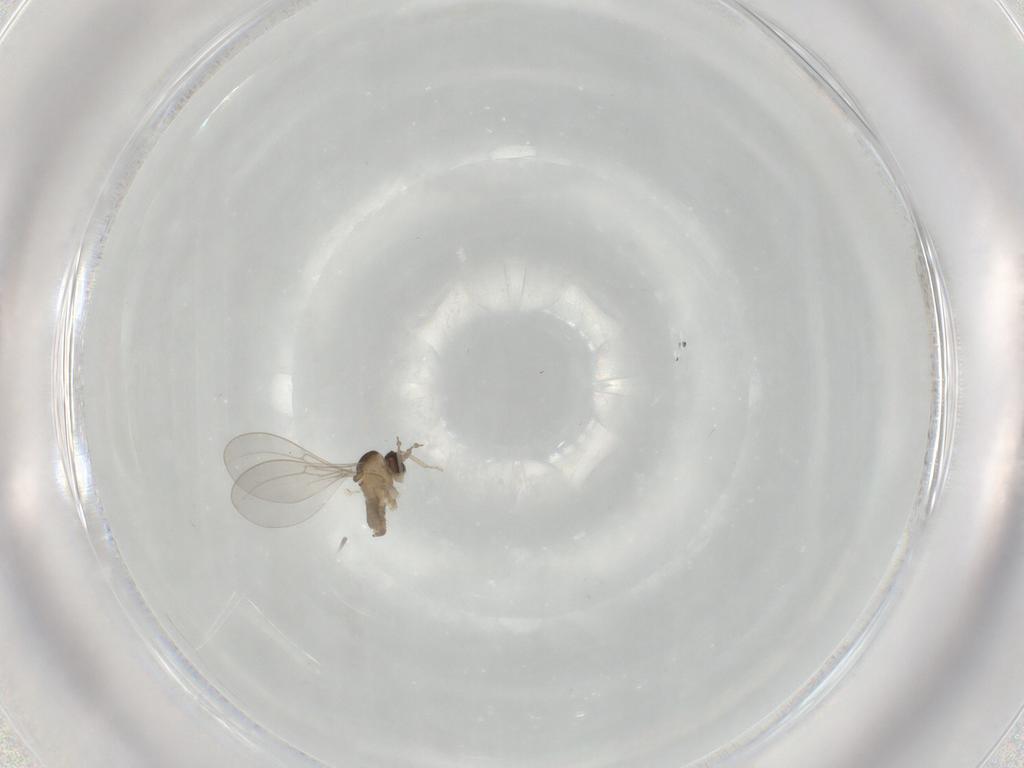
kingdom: Animalia
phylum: Arthropoda
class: Insecta
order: Diptera
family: Cecidomyiidae
